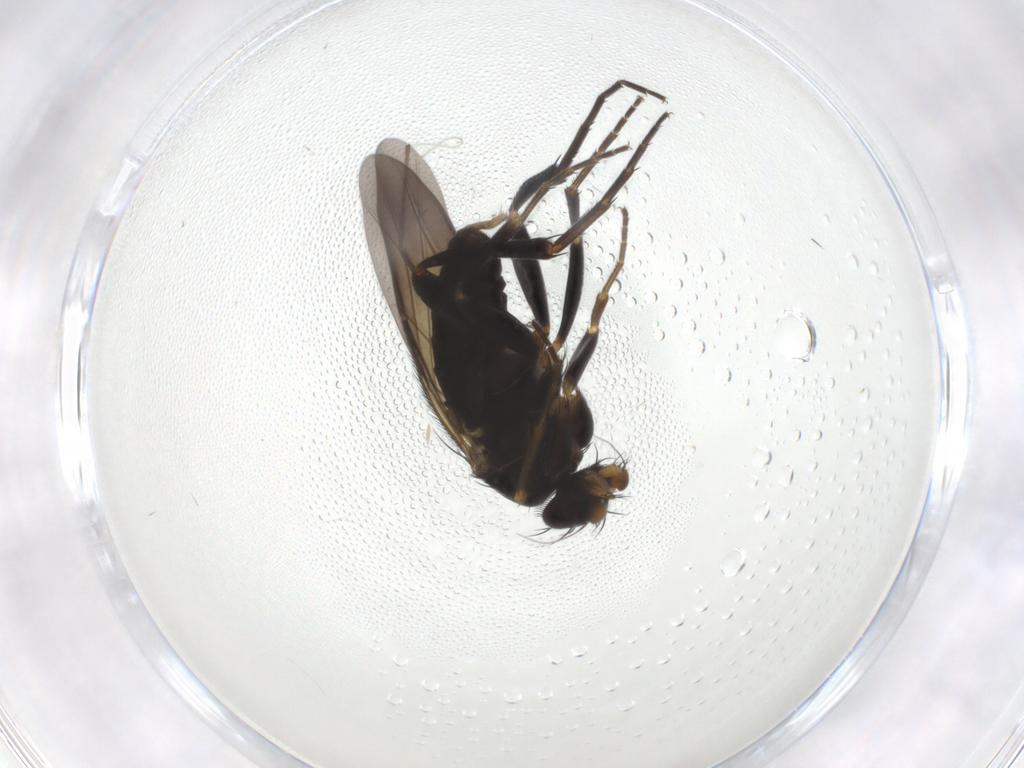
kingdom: Animalia
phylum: Arthropoda
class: Insecta
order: Diptera
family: Phoridae
